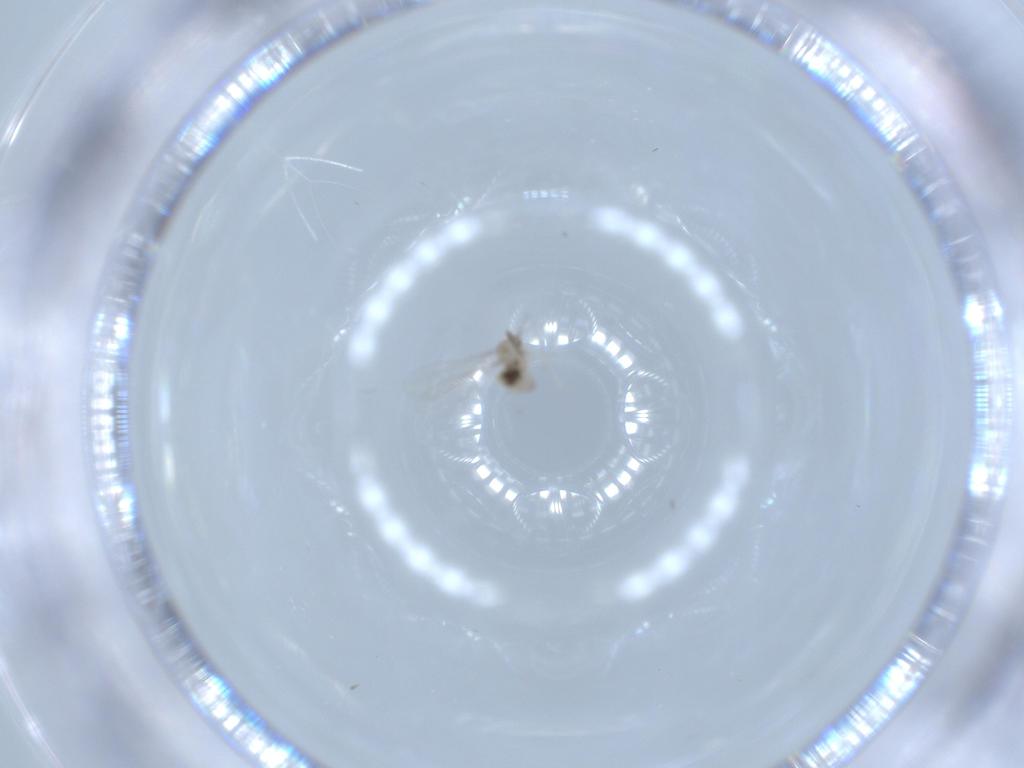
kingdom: Animalia
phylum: Arthropoda
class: Insecta
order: Diptera
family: Cecidomyiidae
